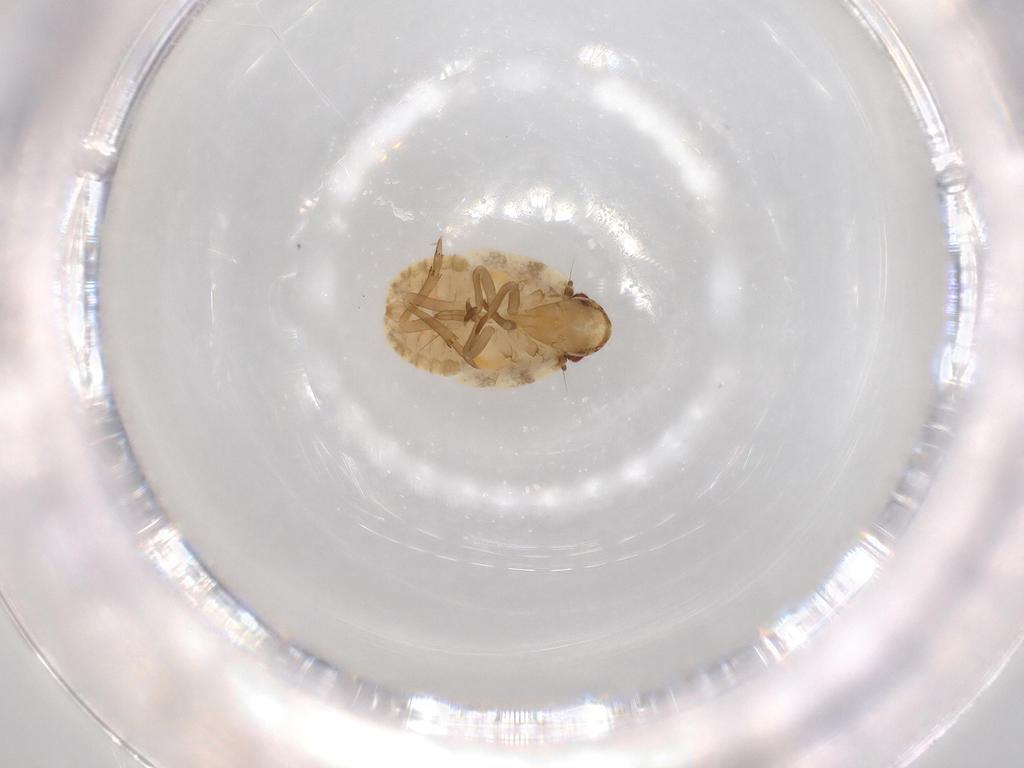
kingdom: Animalia
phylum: Arthropoda
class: Insecta
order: Hemiptera
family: Flatidae
